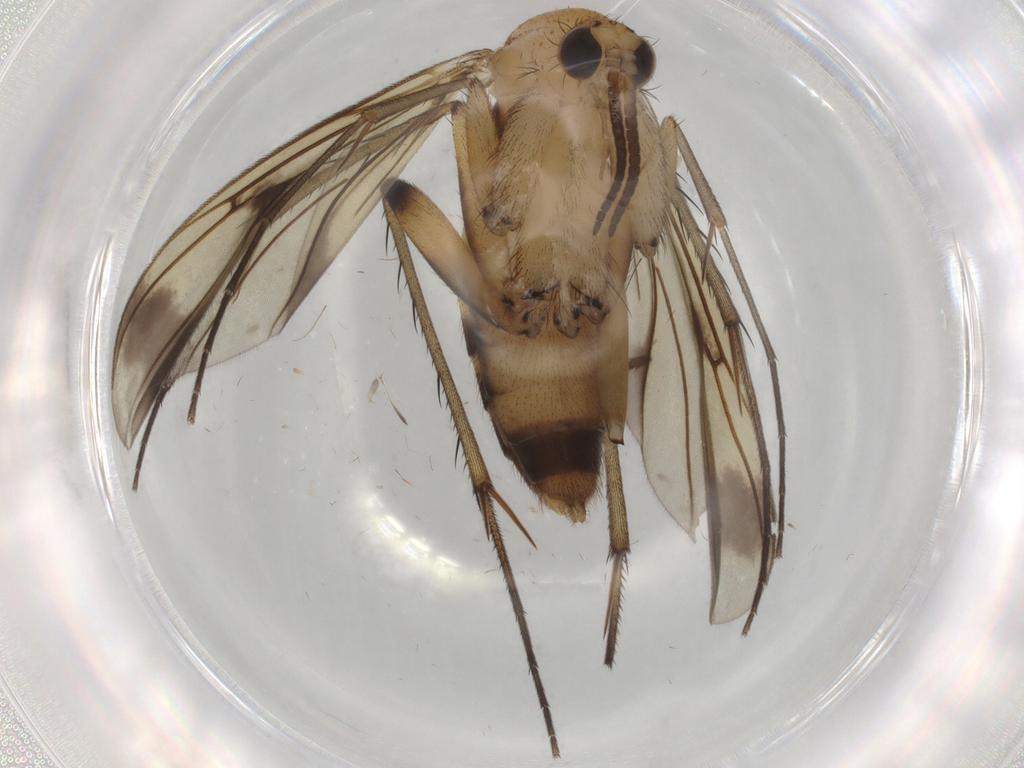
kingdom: Animalia
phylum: Arthropoda
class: Insecta
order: Diptera
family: Mycetophilidae
